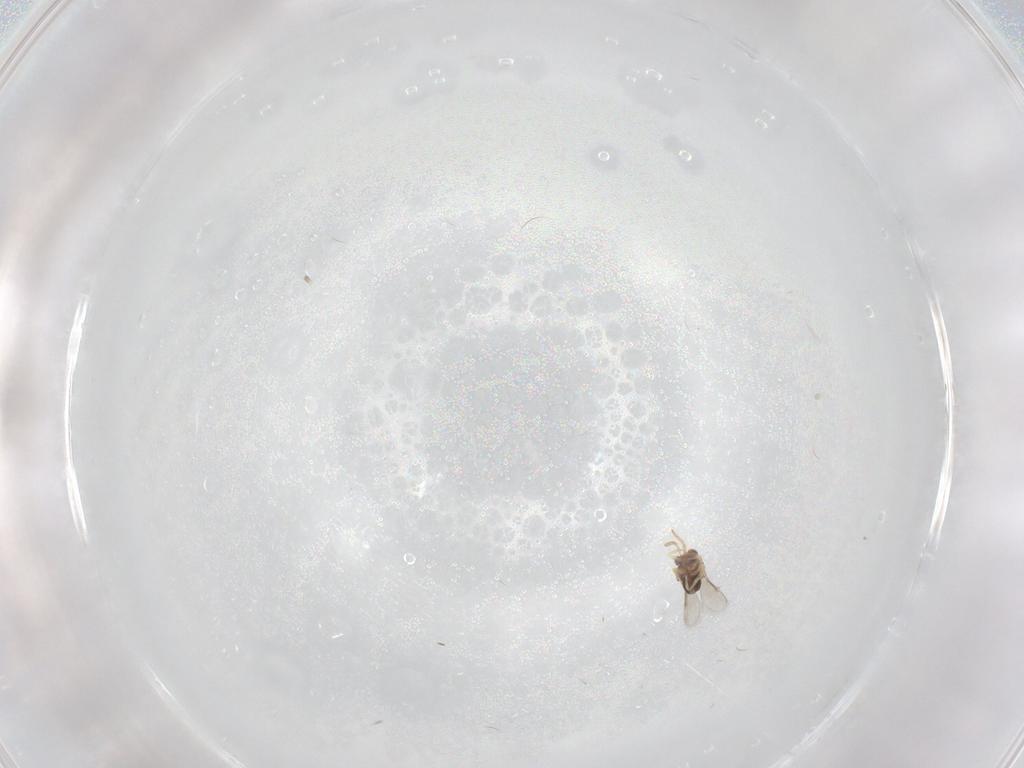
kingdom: Animalia
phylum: Arthropoda
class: Insecta
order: Hymenoptera
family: Aphelinidae
